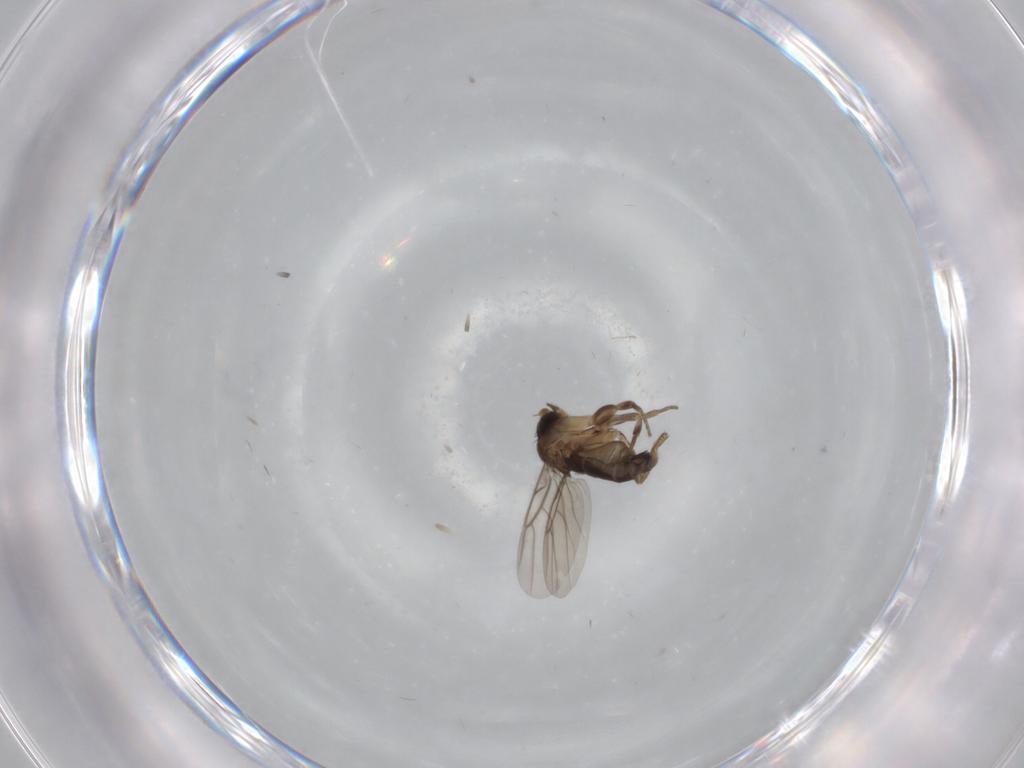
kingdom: Animalia
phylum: Arthropoda
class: Insecta
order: Diptera
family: Phoridae
